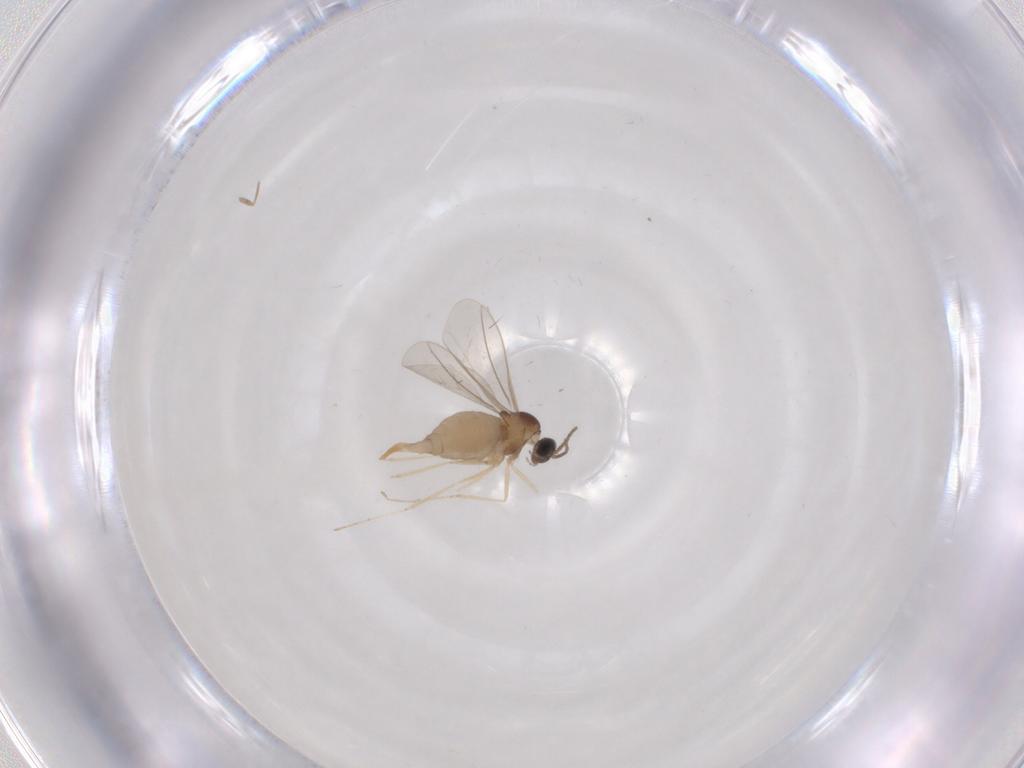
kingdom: Animalia
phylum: Arthropoda
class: Insecta
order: Diptera
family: Cecidomyiidae
